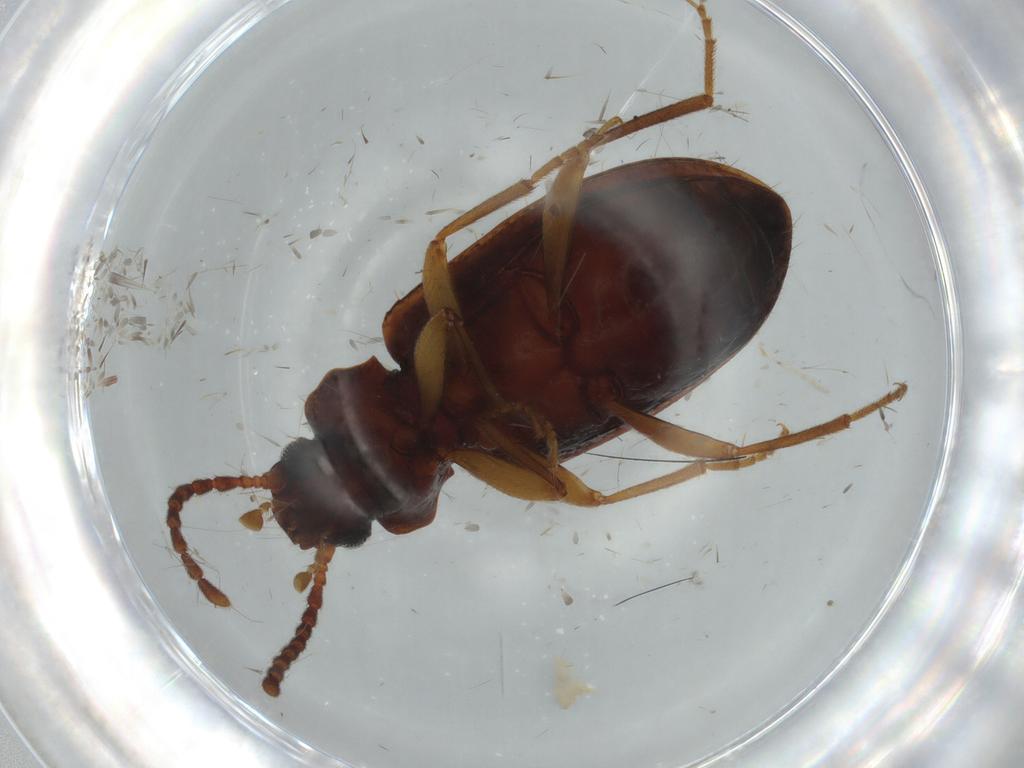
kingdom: Animalia
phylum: Arthropoda
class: Insecta
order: Coleoptera
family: Tenebrionidae
